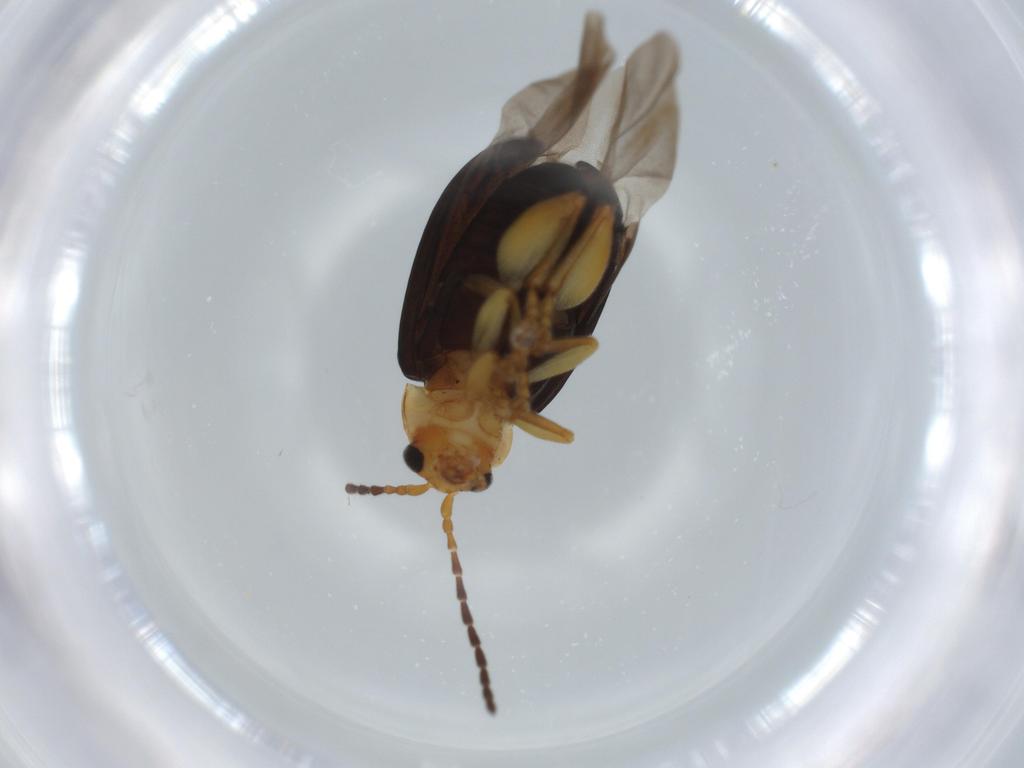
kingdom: Animalia
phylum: Arthropoda
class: Insecta
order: Coleoptera
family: Chrysomelidae
